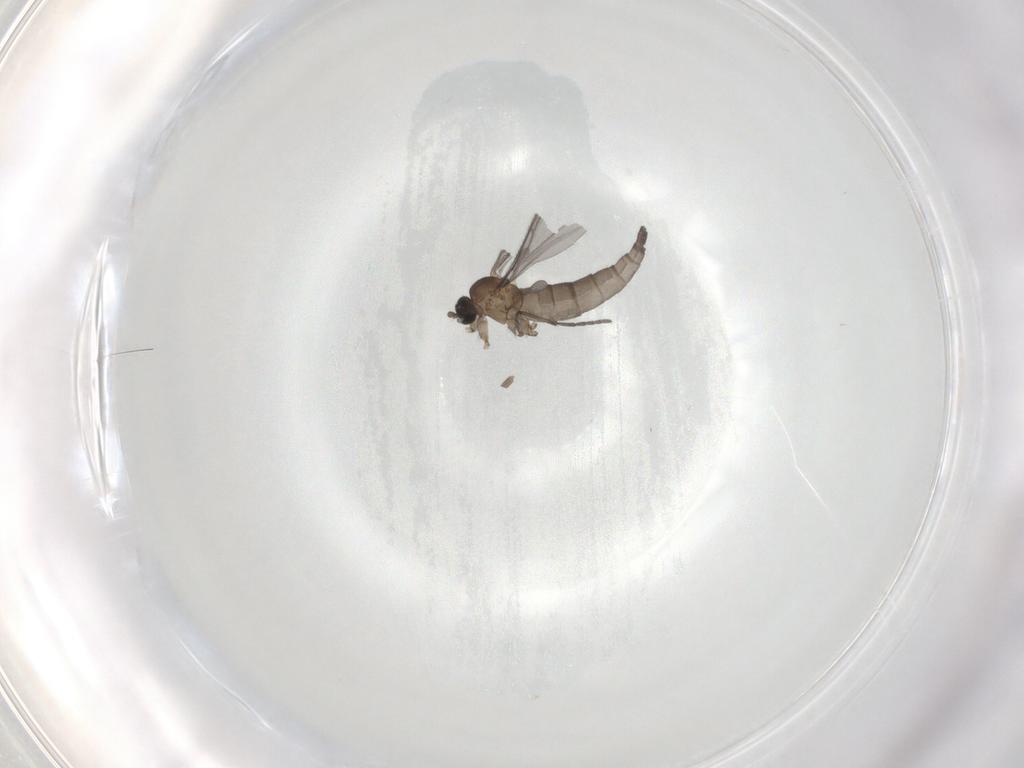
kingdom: Animalia
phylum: Arthropoda
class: Insecta
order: Diptera
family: Sciaridae
